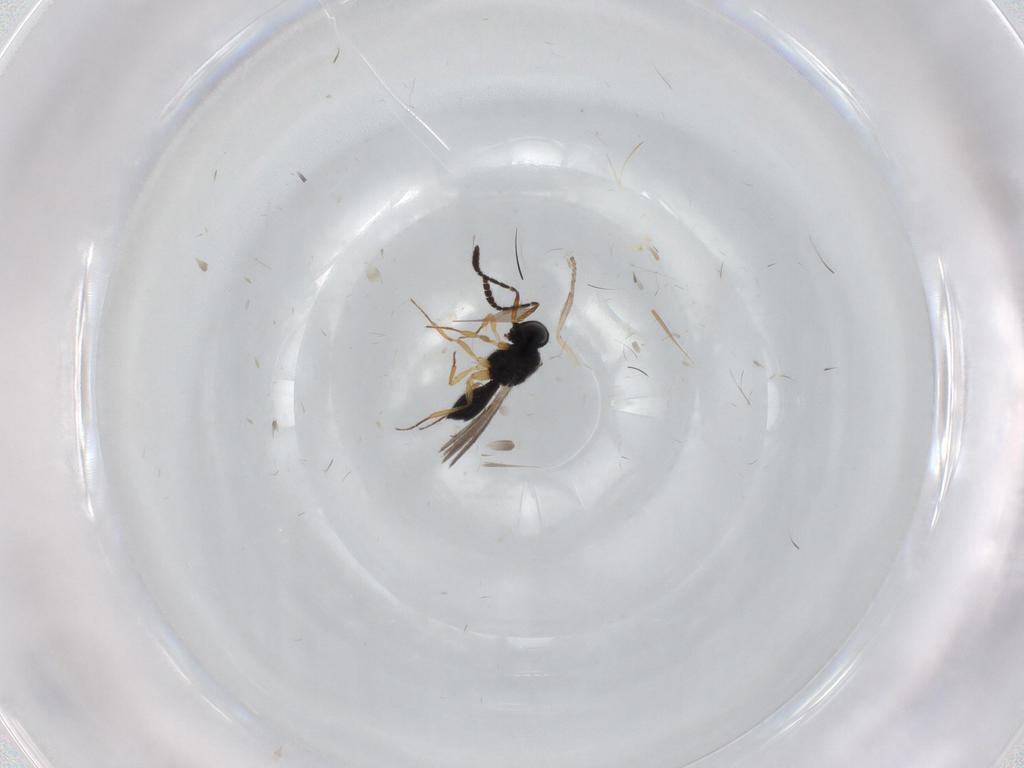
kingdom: Animalia
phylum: Arthropoda
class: Insecta
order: Hymenoptera
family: Scelionidae
